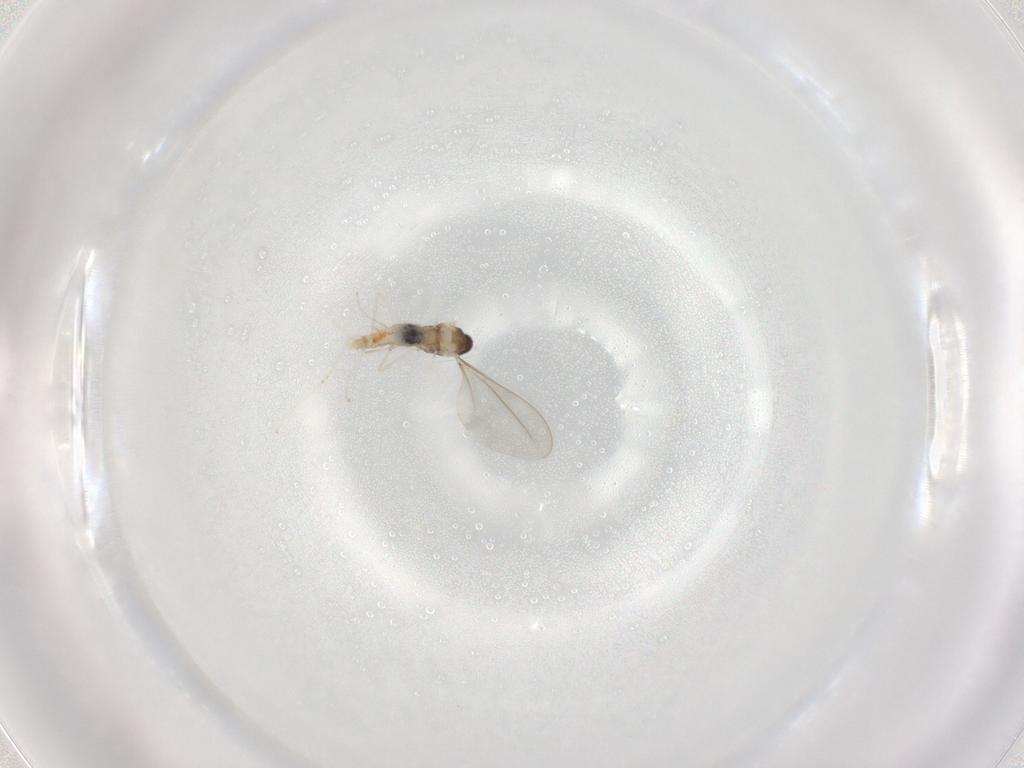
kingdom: Animalia
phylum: Arthropoda
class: Insecta
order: Diptera
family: Cecidomyiidae
